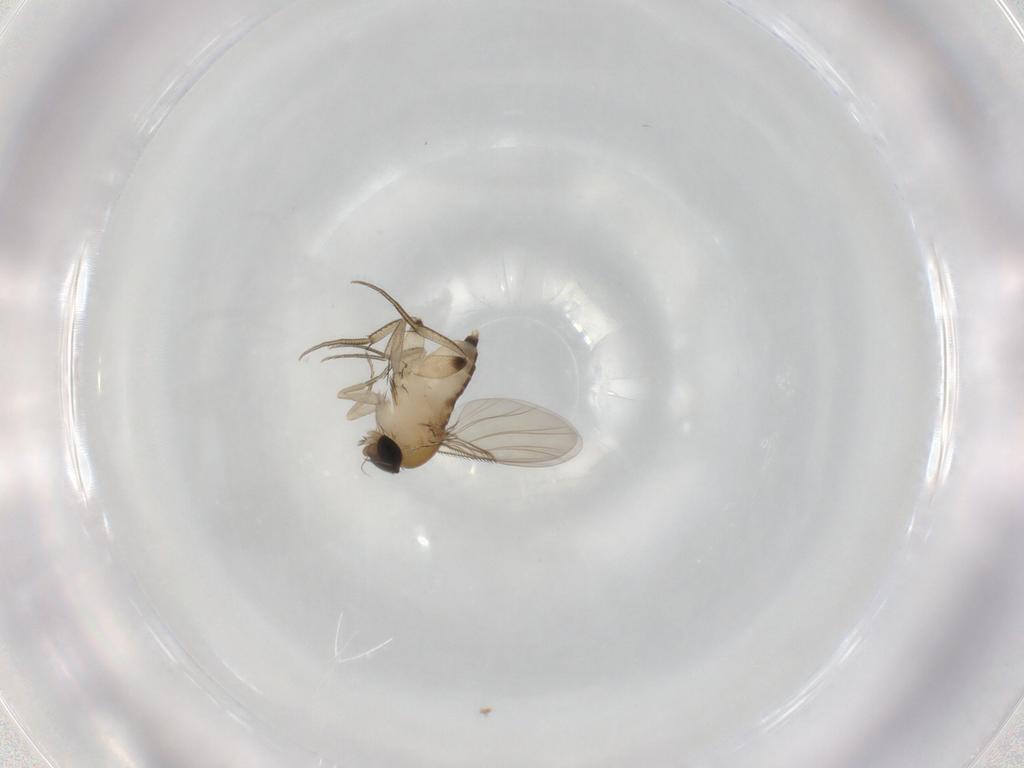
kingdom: Animalia
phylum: Arthropoda
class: Insecta
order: Diptera
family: Phoridae
